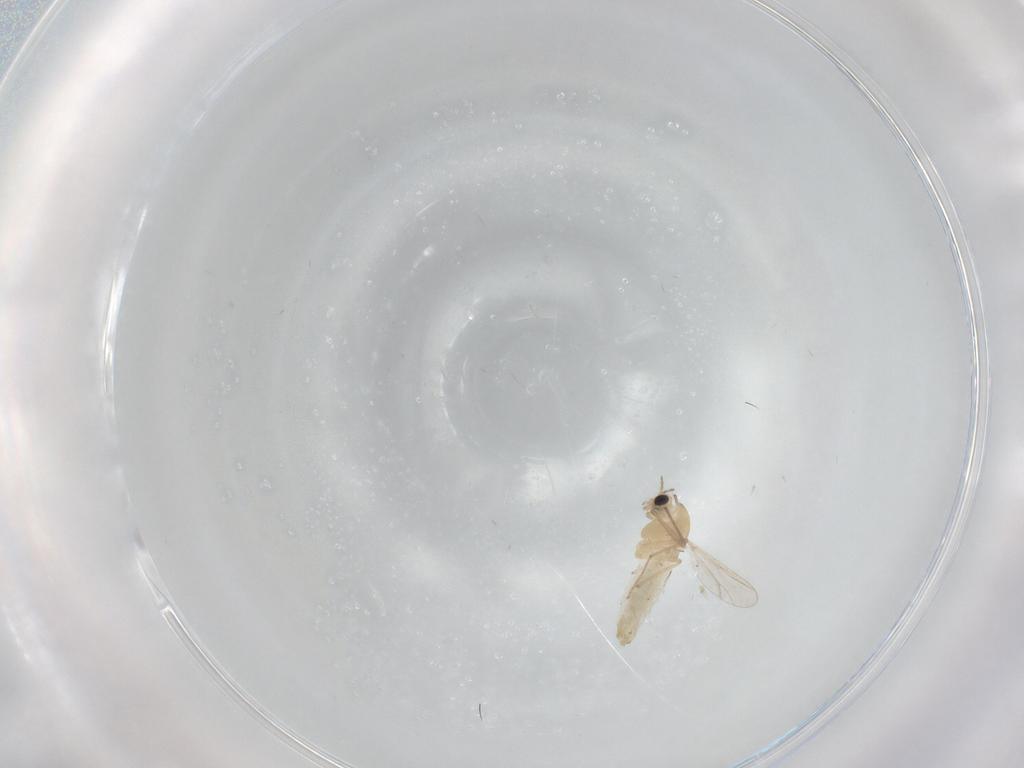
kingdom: Animalia
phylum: Arthropoda
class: Insecta
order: Diptera
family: Chironomidae
